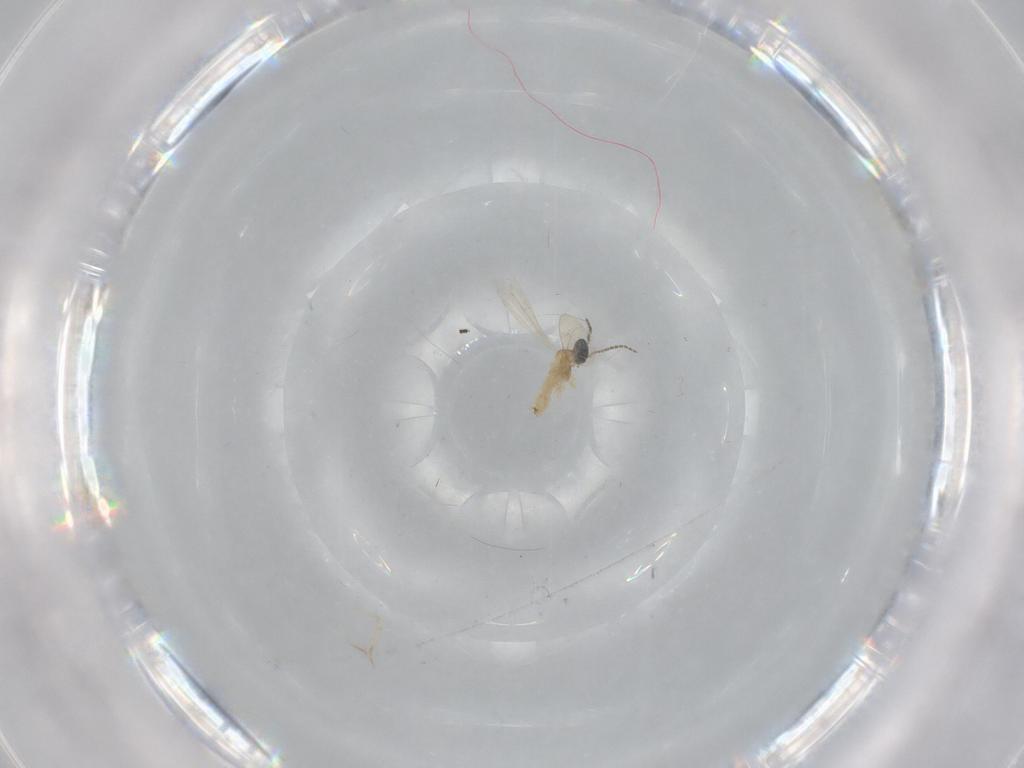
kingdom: Animalia
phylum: Arthropoda
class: Insecta
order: Diptera
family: Cecidomyiidae
